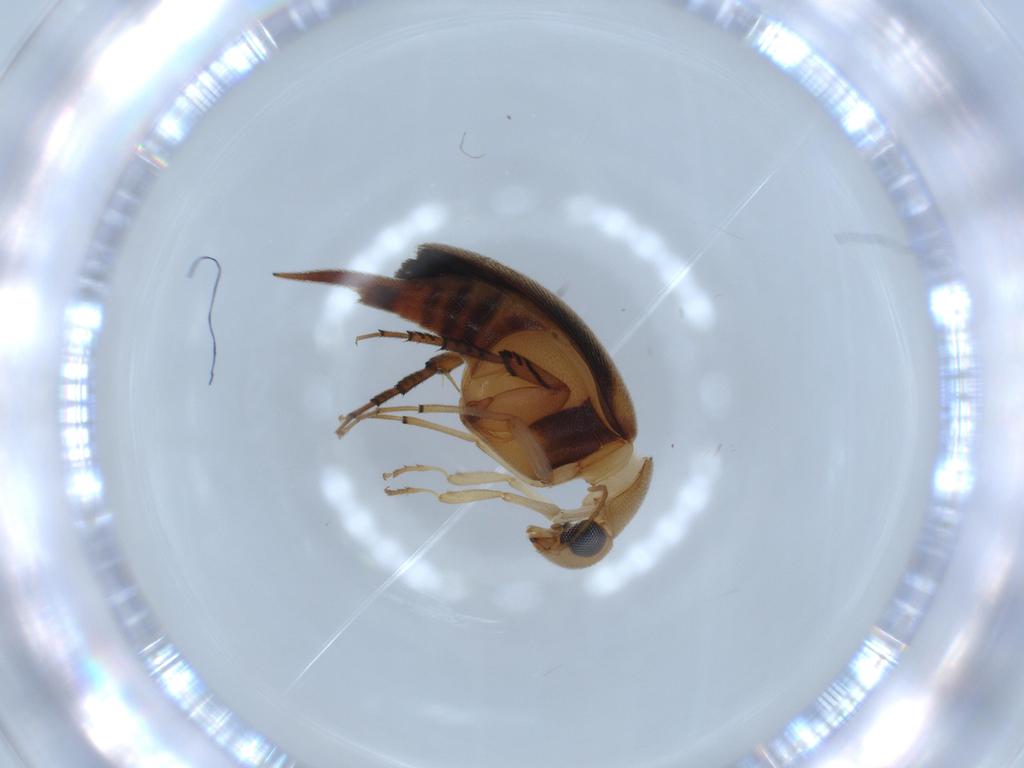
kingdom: Animalia
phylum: Arthropoda
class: Insecta
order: Coleoptera
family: Mordellidae
